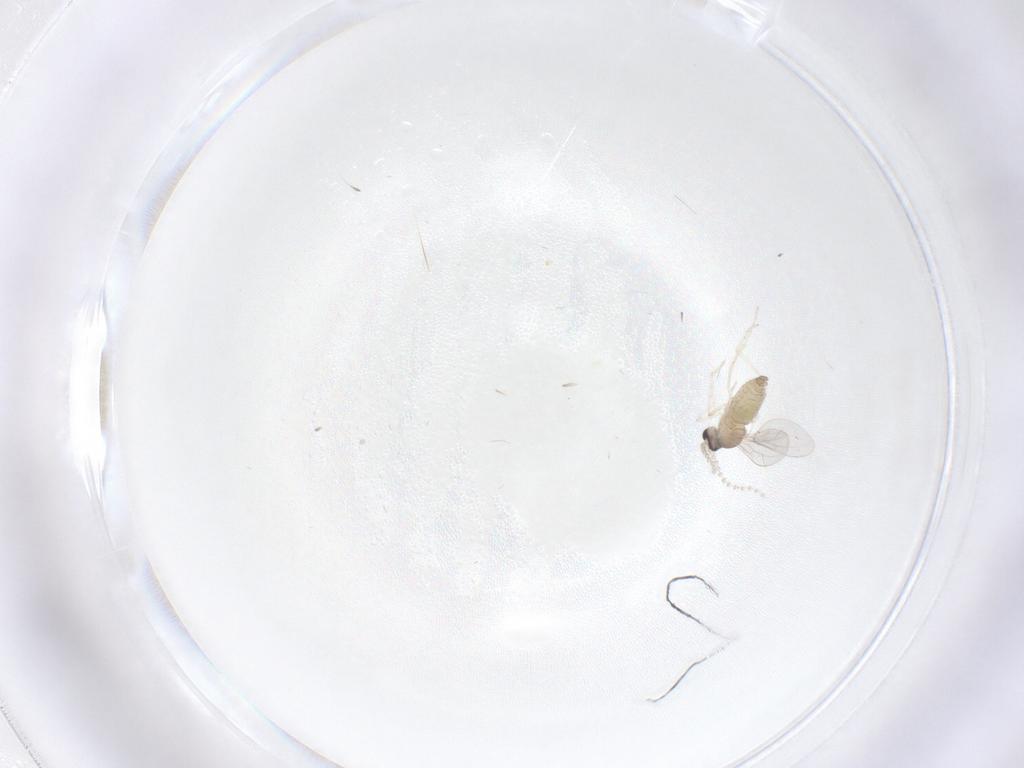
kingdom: Animalia
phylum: Arthropoda
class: Insecta
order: Diptera
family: Cecidomyiidae
